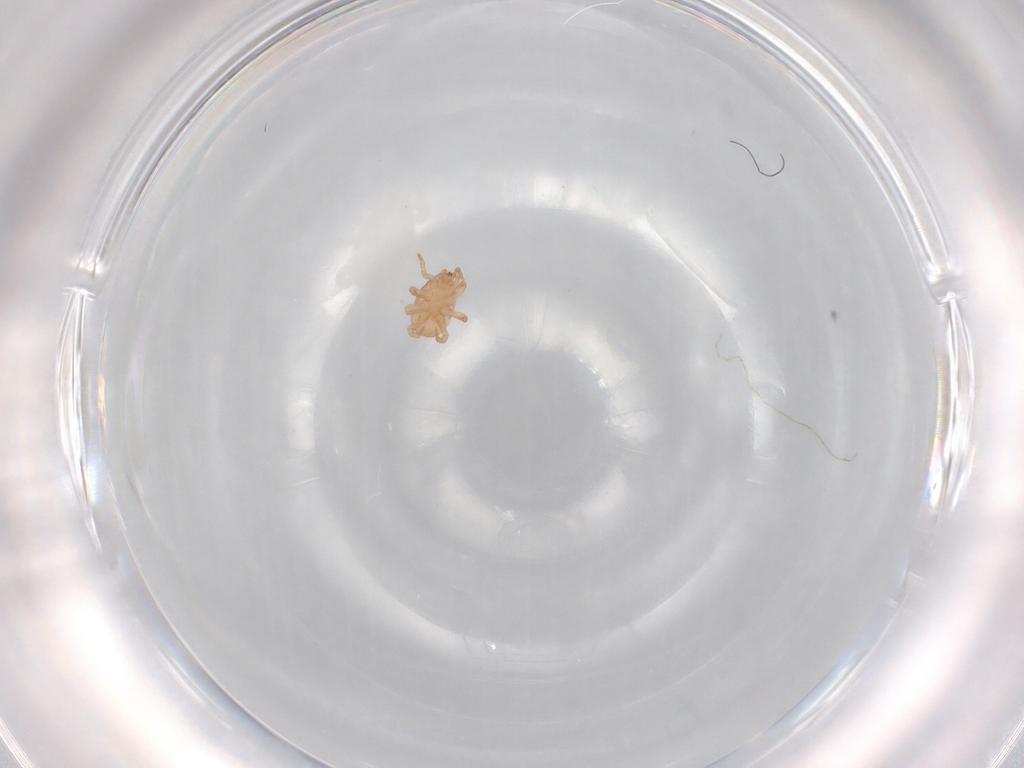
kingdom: Animalia
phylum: Arthropoda
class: Arachnida
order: Mesostigmata
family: Eviphididae
